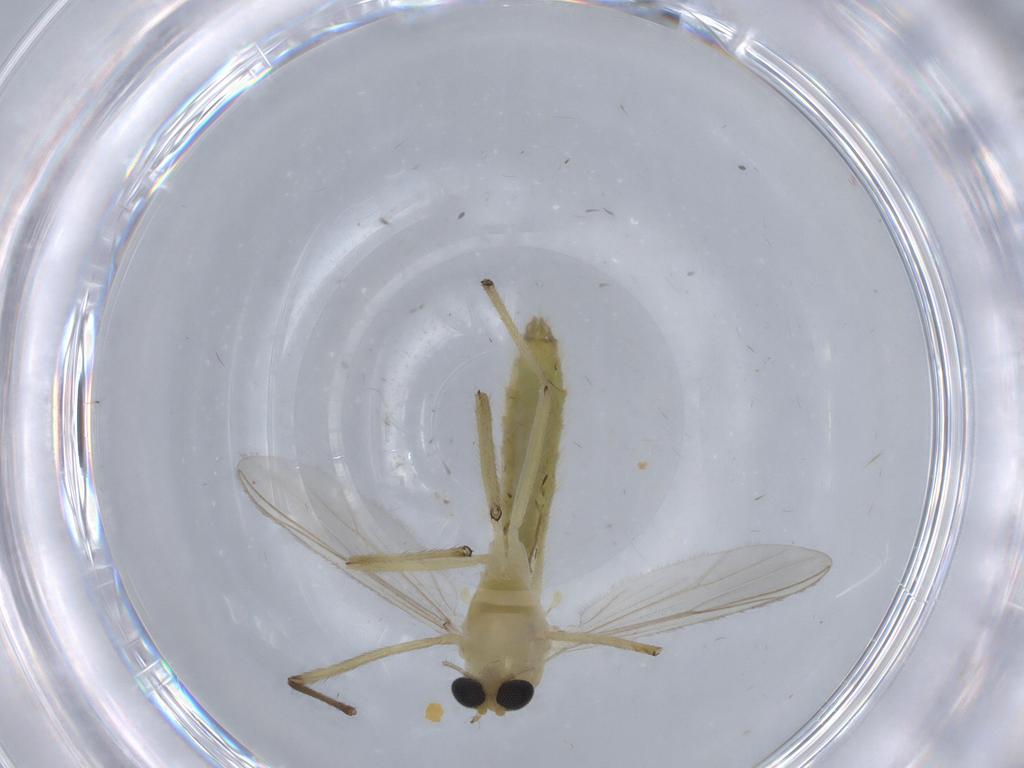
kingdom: Animalia
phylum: Arthropoda
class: Insecta
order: Diptera
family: Chironomidae
